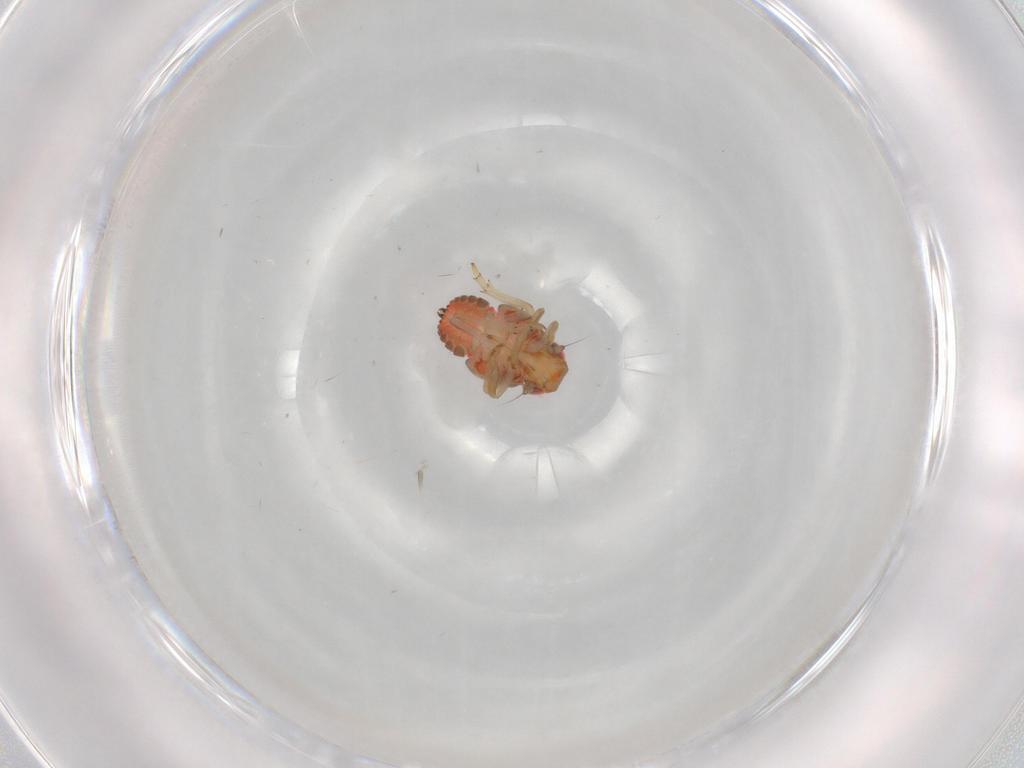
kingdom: Animalia
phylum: Arthropoda
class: Insecta
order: Hemiptera
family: Issidae
